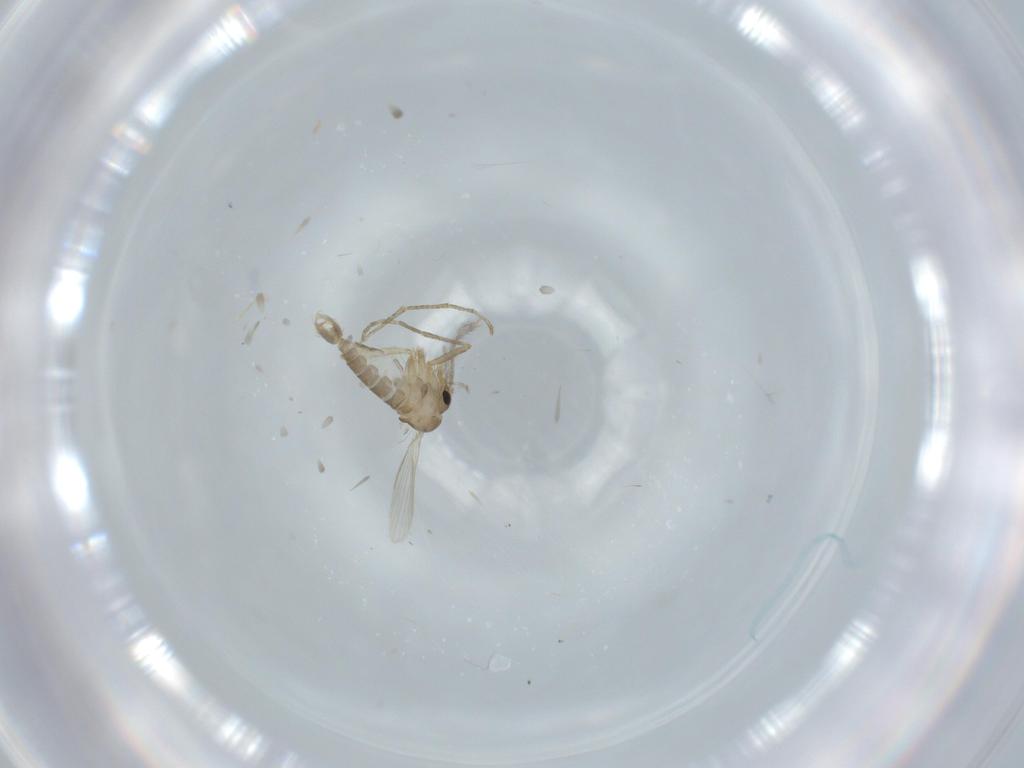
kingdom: Animalia
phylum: Arthropoda
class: Insecta
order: Diptera
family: Psychodidae
